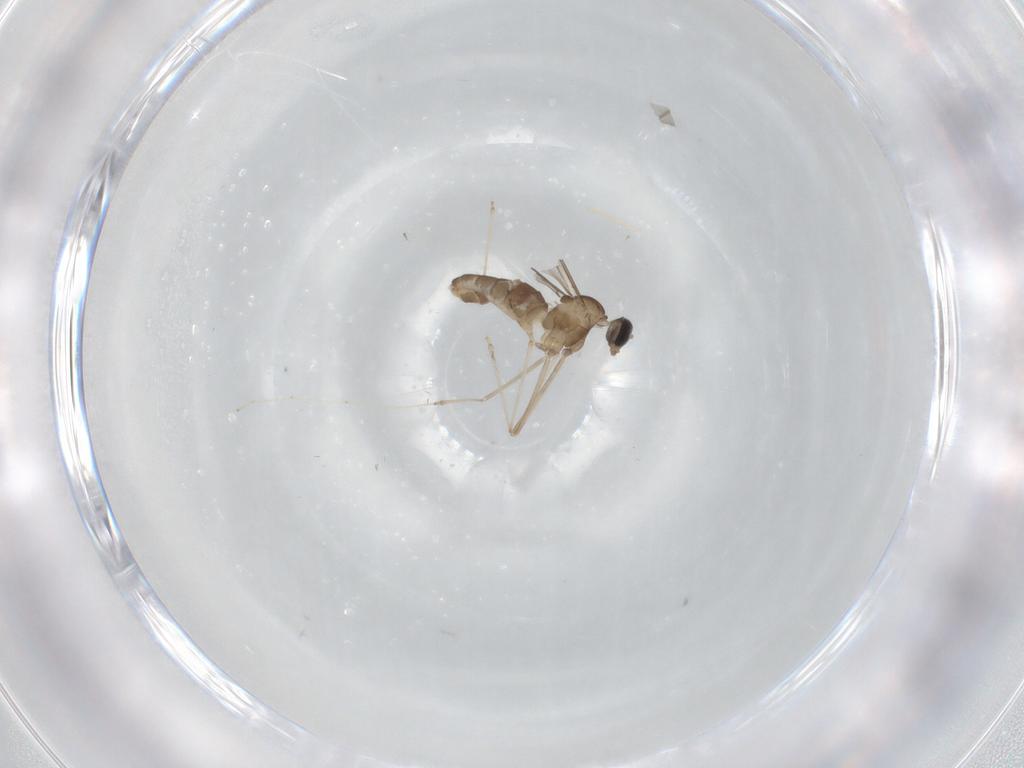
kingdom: Animalia
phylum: Arthropoda
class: Insecta
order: Diptera
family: Cecidomyiidae
